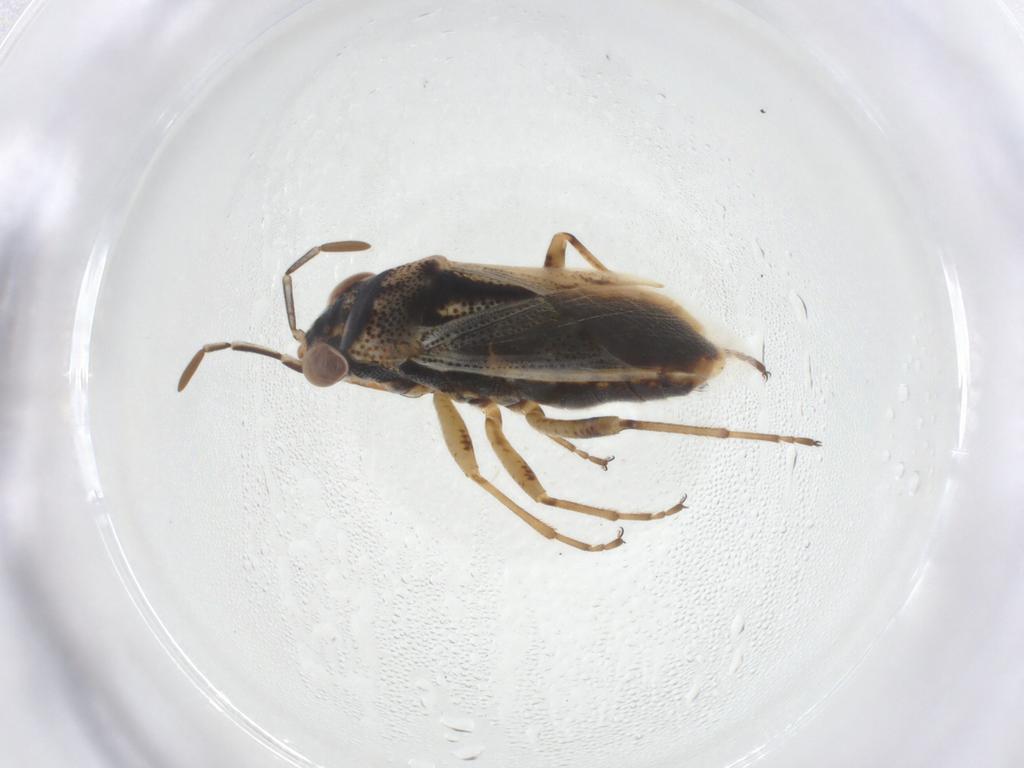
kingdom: Animalia
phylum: Arthropoda
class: Insecta
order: Hemiptera
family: Geocoridae
